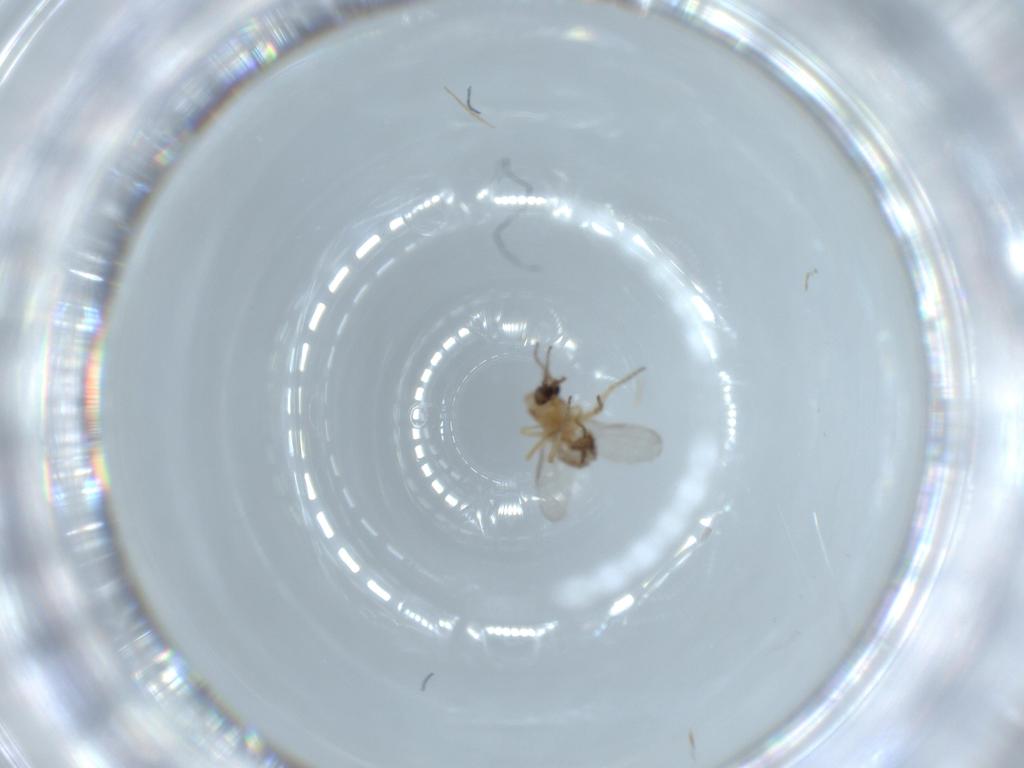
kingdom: Animalia
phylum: Arthropoda
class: Insecta
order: Diptera
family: Ceratopogonidae
